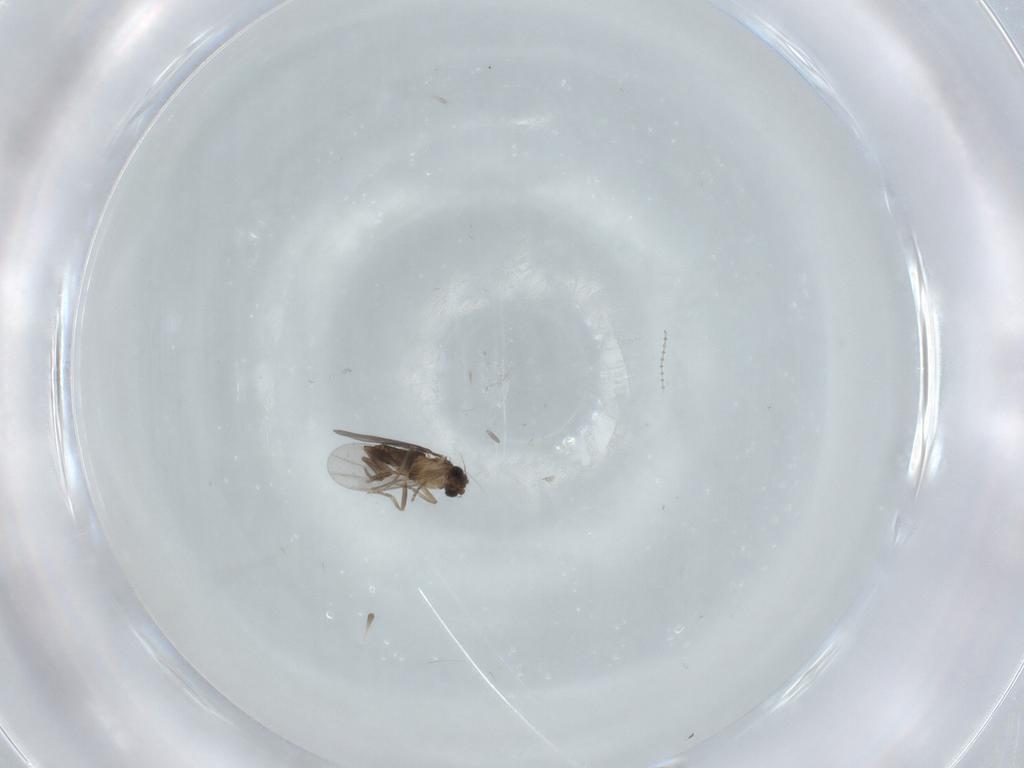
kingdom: Animalia
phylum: Arthropoda
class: Insecta
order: Diptera
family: Cecidomyiidae
